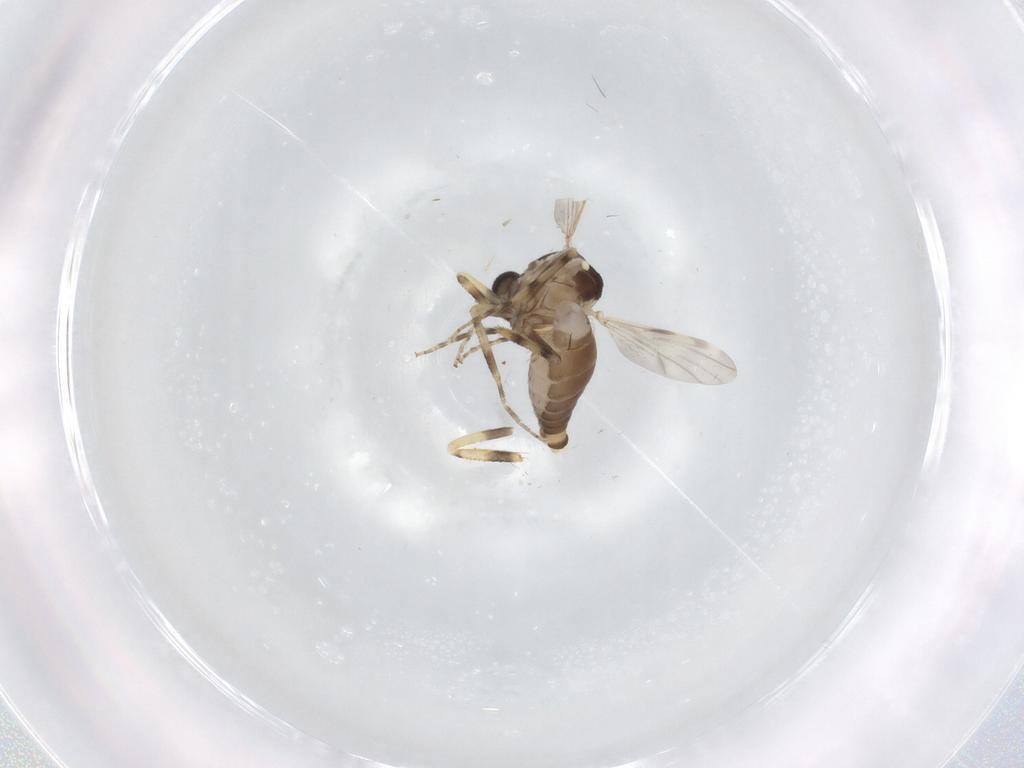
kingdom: Animalia
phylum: Arthropoda
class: Insecta
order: Diptera
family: Ceratopogonidae
